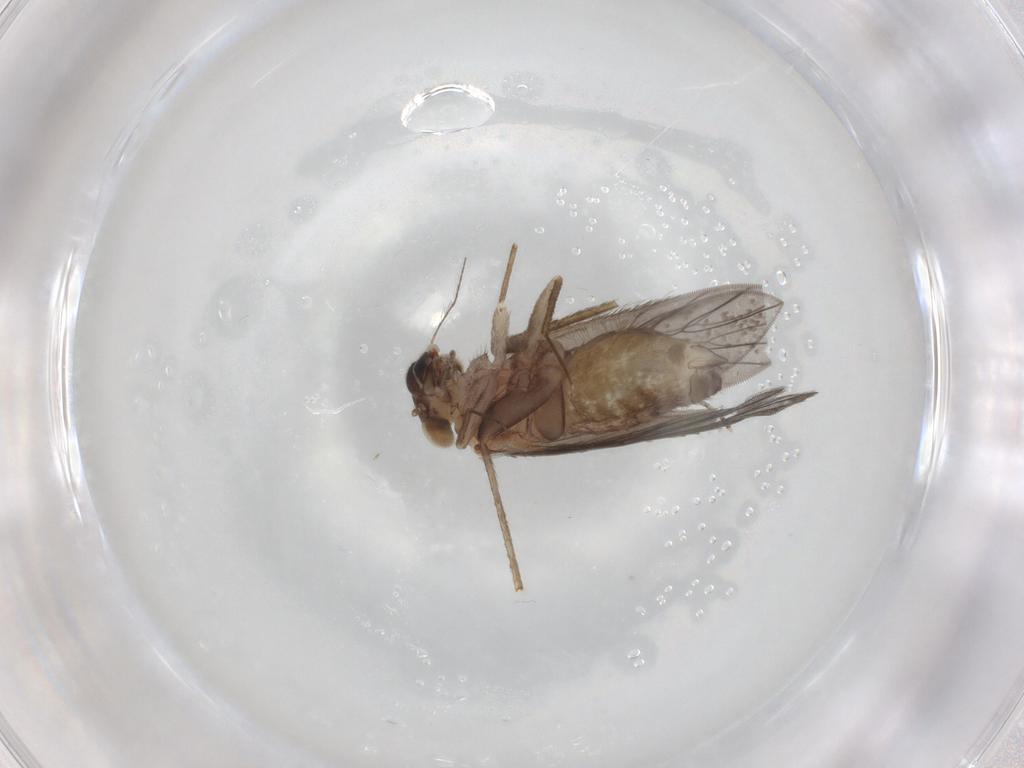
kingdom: Animalia
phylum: Arthropoda
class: Insecta
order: Psocodea
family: Lepidopsocidae
